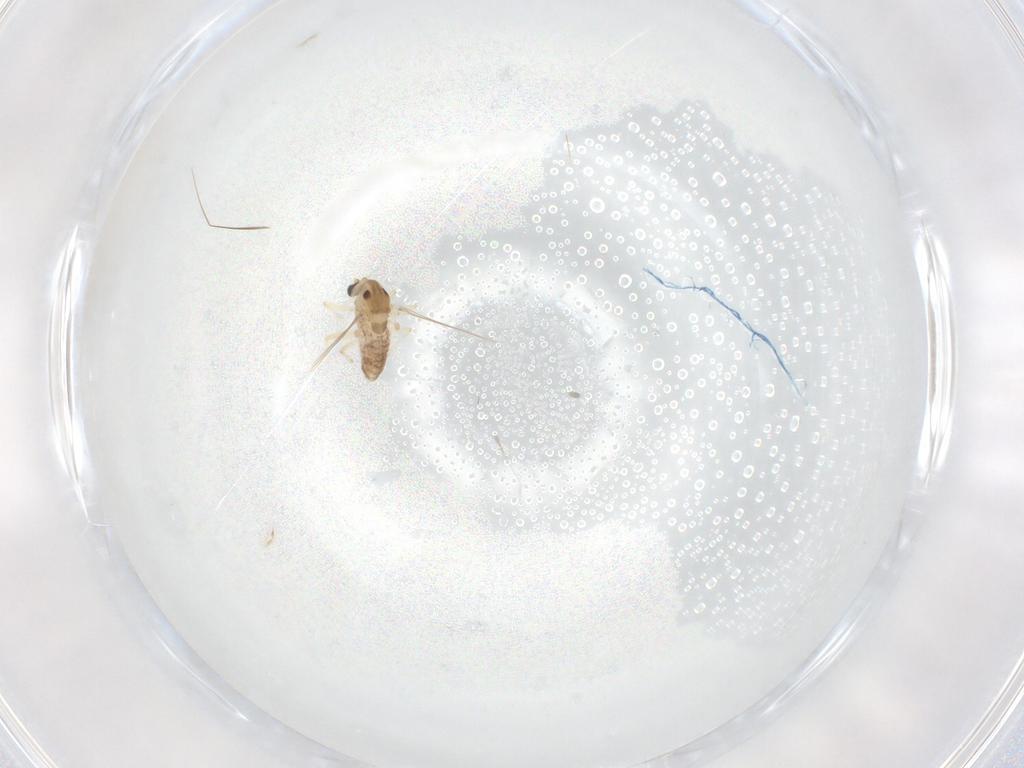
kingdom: Animalia
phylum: Arthropoda
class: Insecta
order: Diptera
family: Chironomidae
